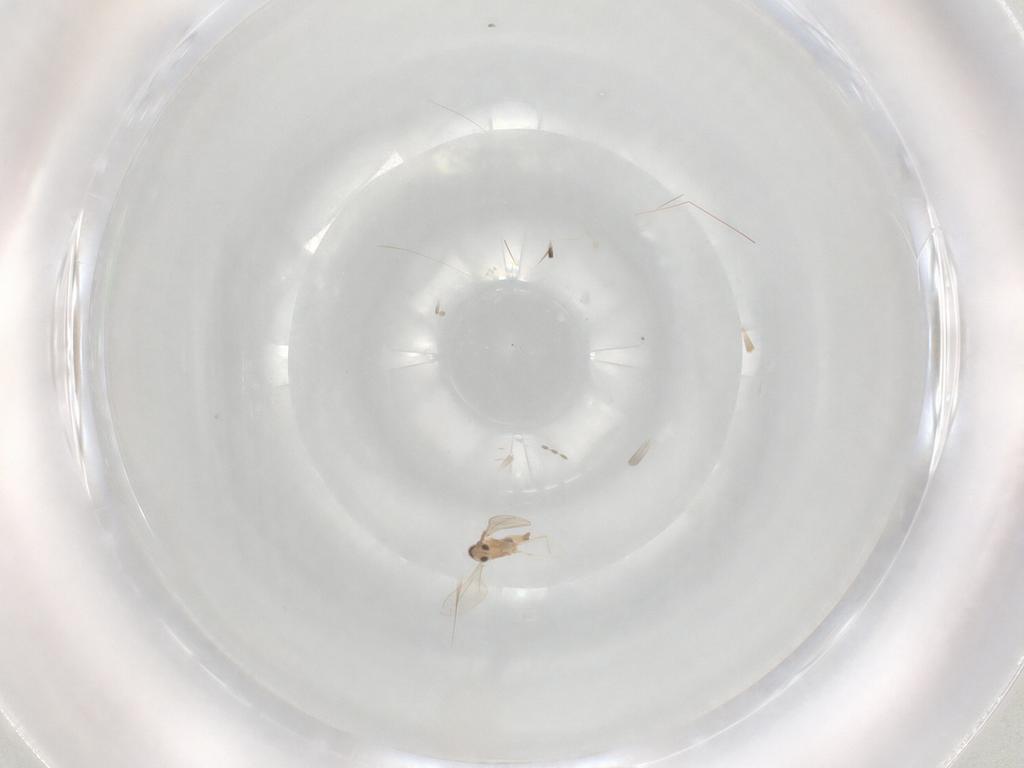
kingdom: Animalia
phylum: Arthropoda
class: Insecta
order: Diptera
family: Cecidomyiidae
